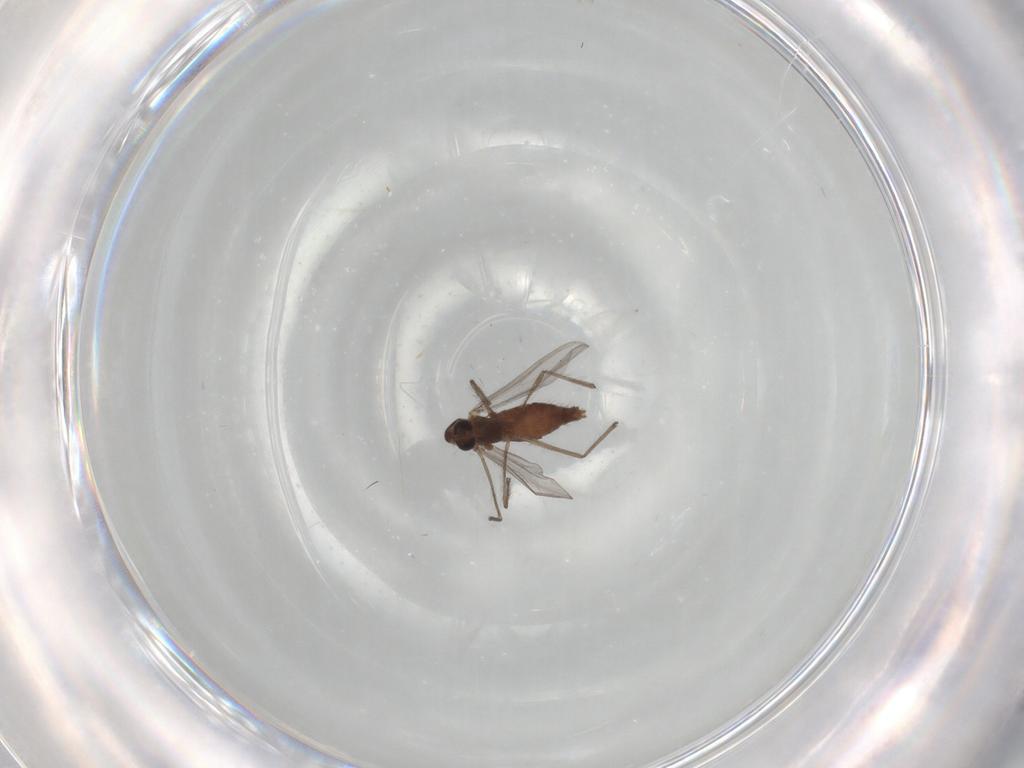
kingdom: Animalia
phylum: Arthropoda
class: Insecta
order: Diptera
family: Chironomidae
